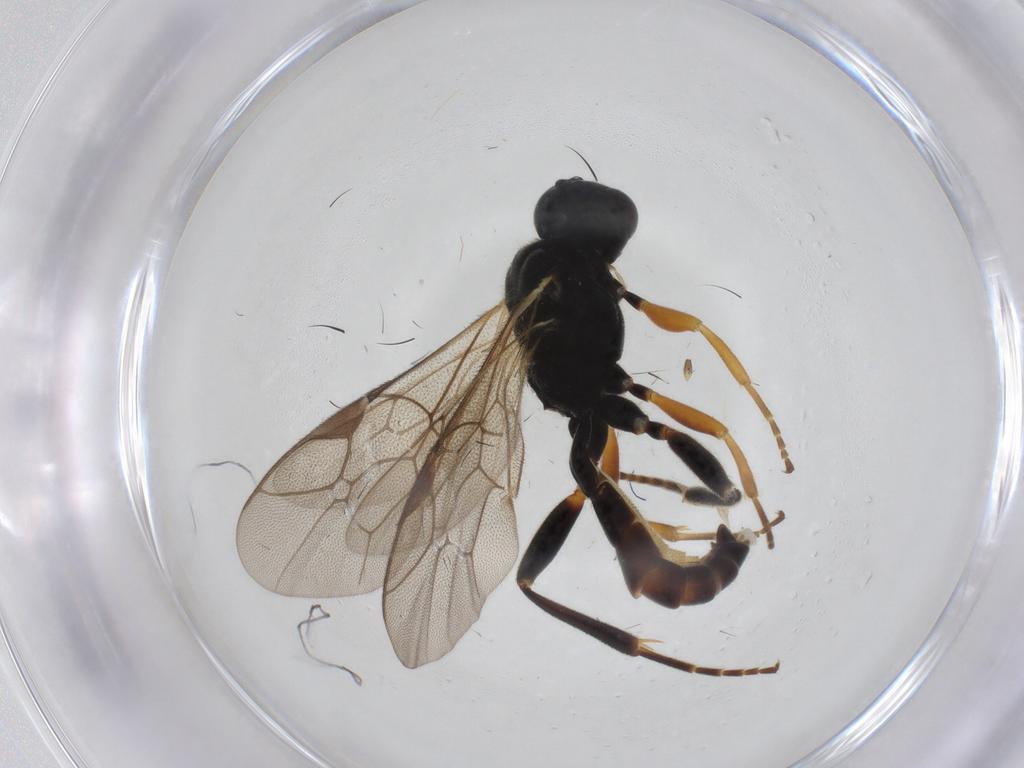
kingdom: Animalia
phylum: Arthropoda
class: Insecta
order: Hymenoptera
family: Ichneumonidae
